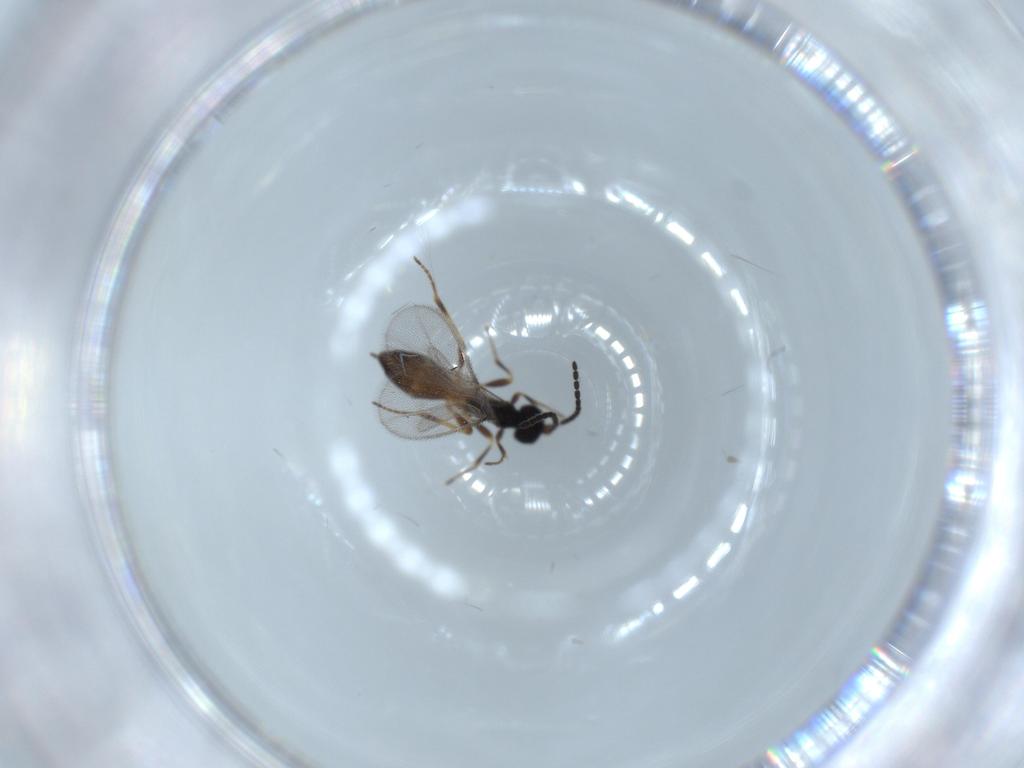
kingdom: Animalia
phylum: Arthropoda
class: Insecta
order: Hymenoptera
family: Braconidae
